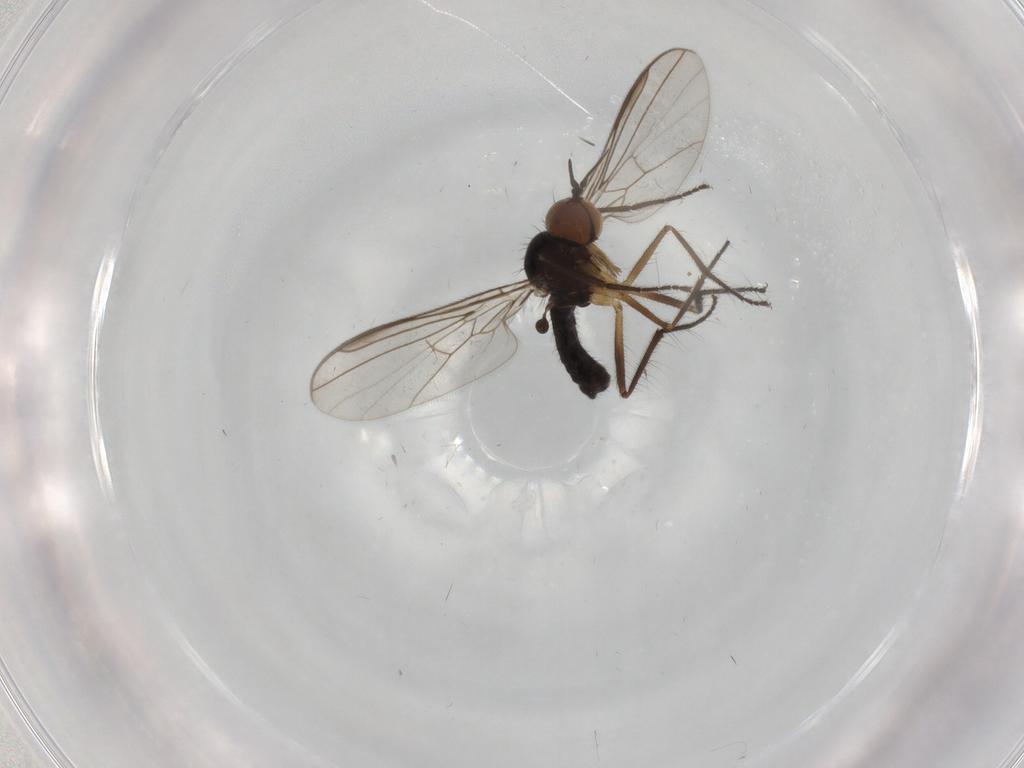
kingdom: Animalia
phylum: Arthropoda
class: Insecta
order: Diptera
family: Empididae
